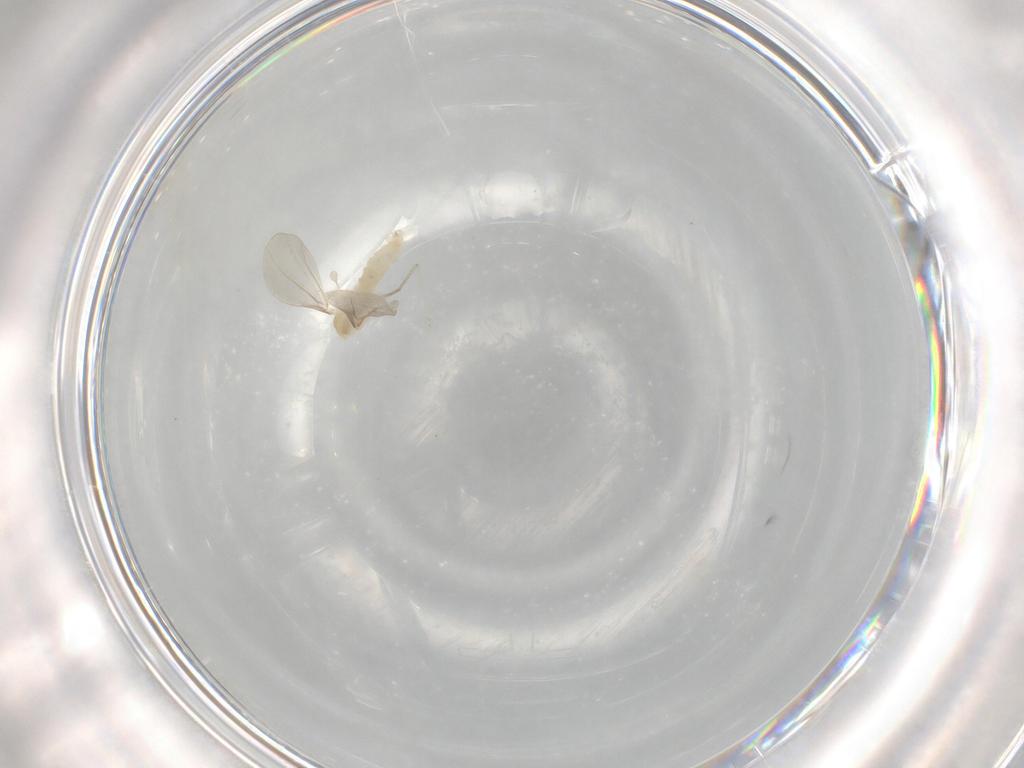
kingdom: Animalia
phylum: Arthropoda
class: Insecta
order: Diptera
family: Cecidomyiidae
